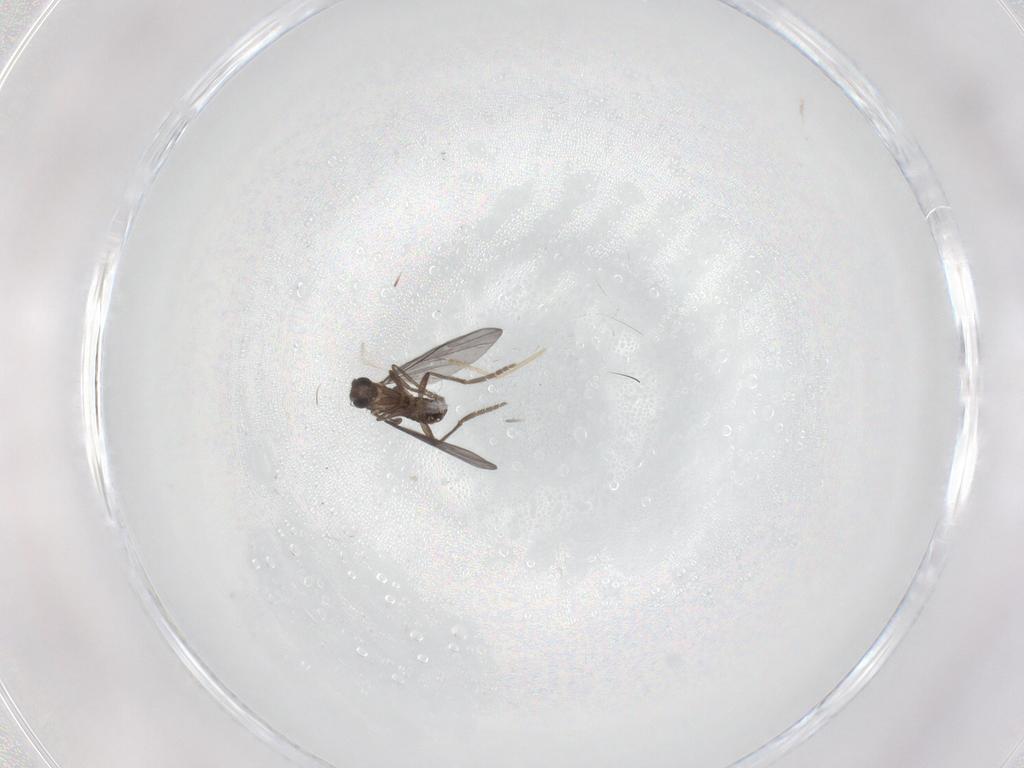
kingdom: Animalia
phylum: Arthropoda
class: Insecta
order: Diptera
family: Phoridae
